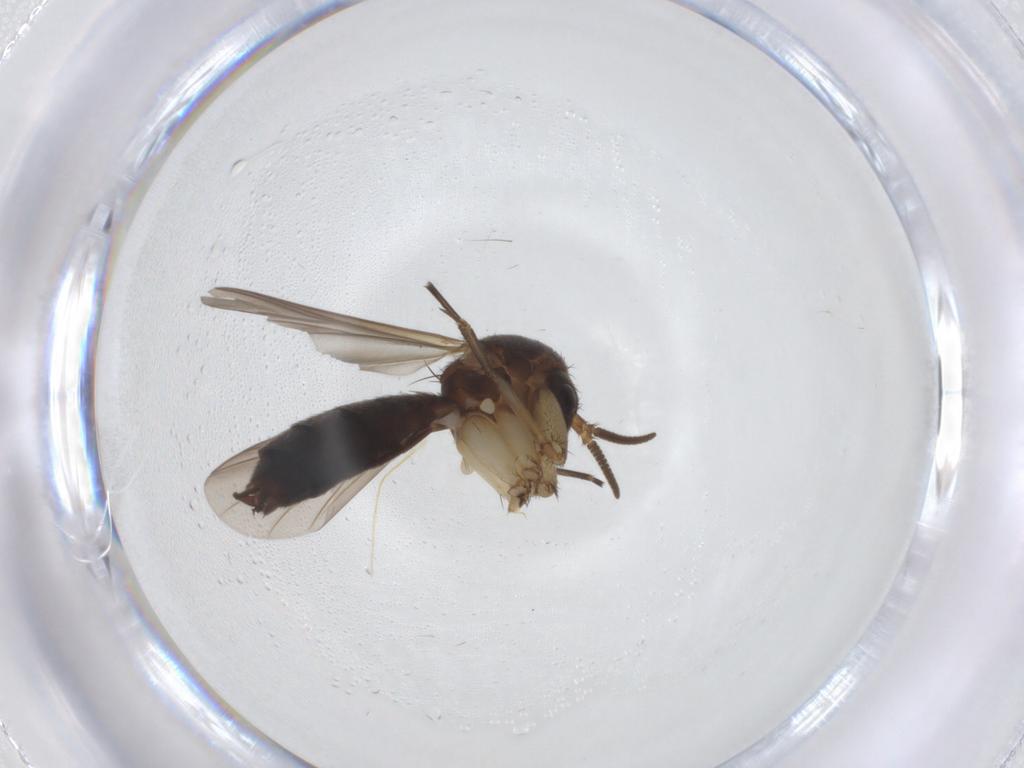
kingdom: Animalia
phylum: Arthropoda
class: Insecta
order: Diptera
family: Mycetophilidae
